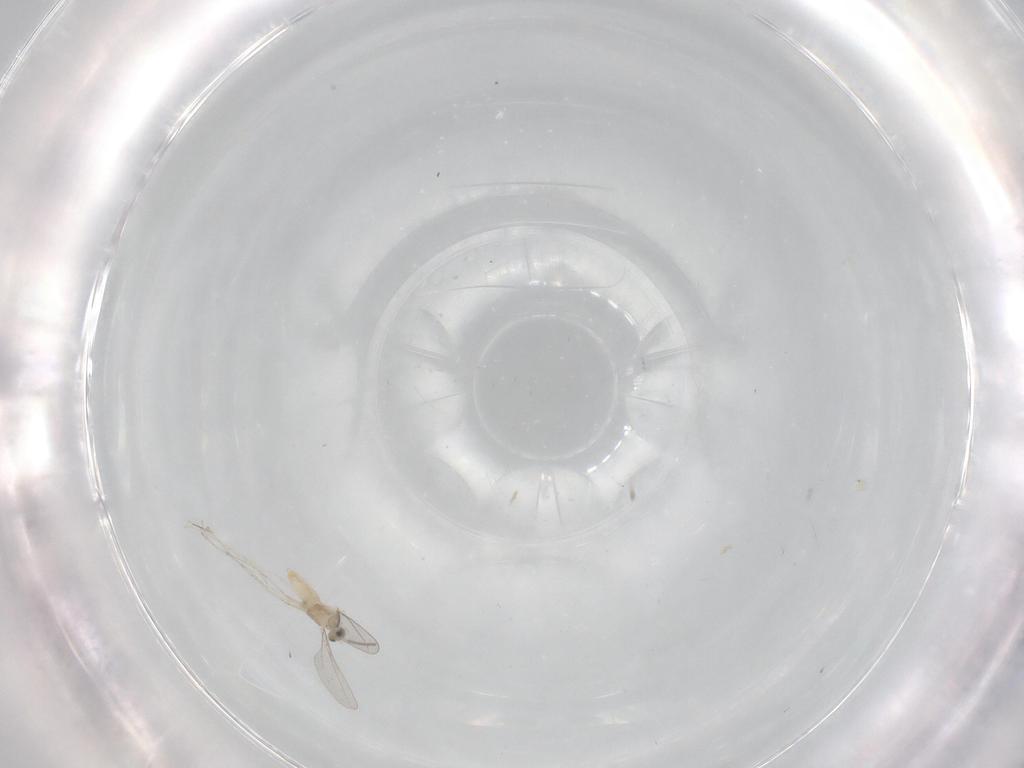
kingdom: Animalia
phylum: Arthropoda
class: Insecta
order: Diptera
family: Cecidomyiidae
